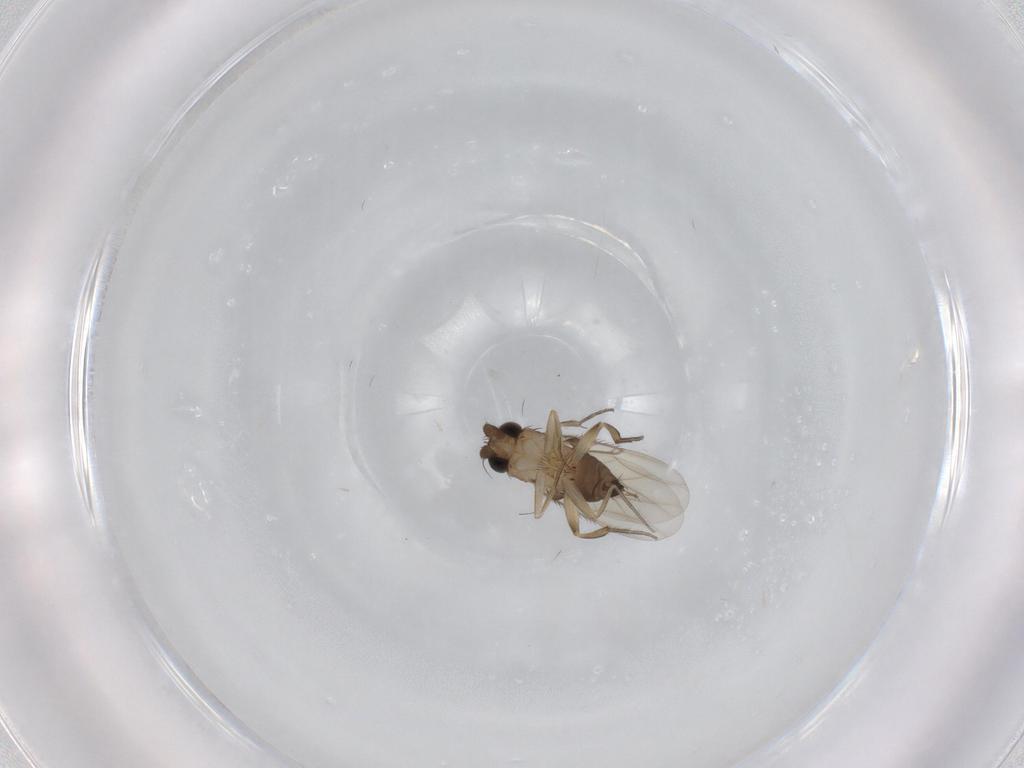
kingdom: Animalia
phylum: Arthropoda
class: Insecta
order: Diptera
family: Phoridae
